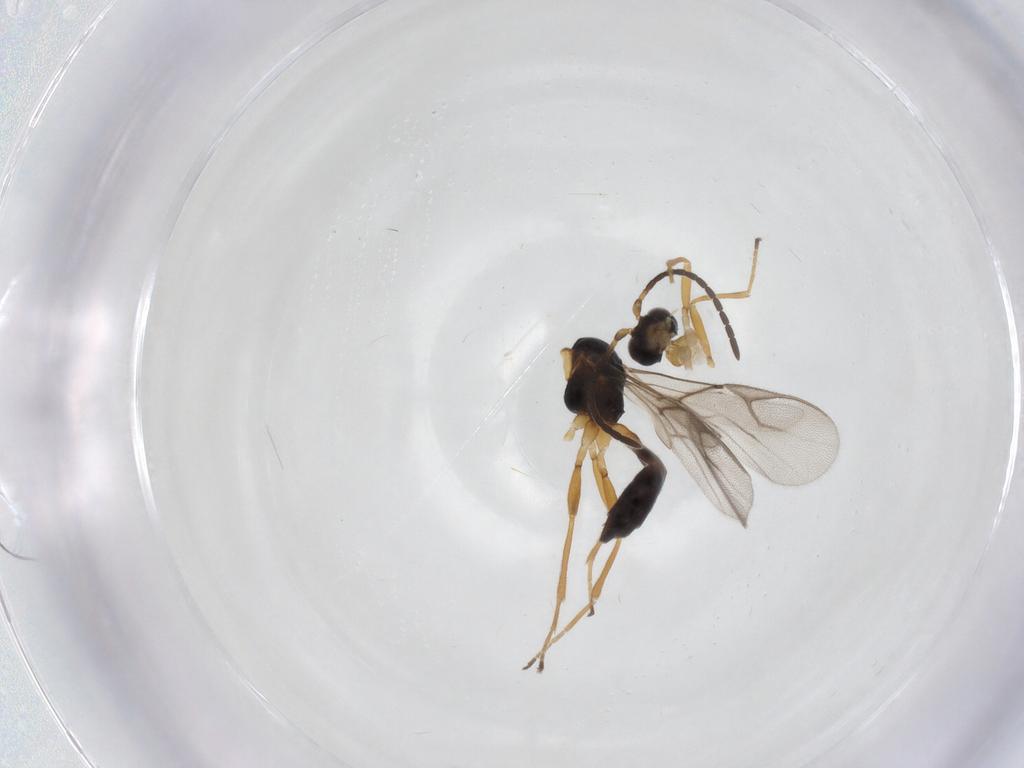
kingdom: Animalia
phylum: Arthropoda
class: Insecta
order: Hymenoptera
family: Braconidae
